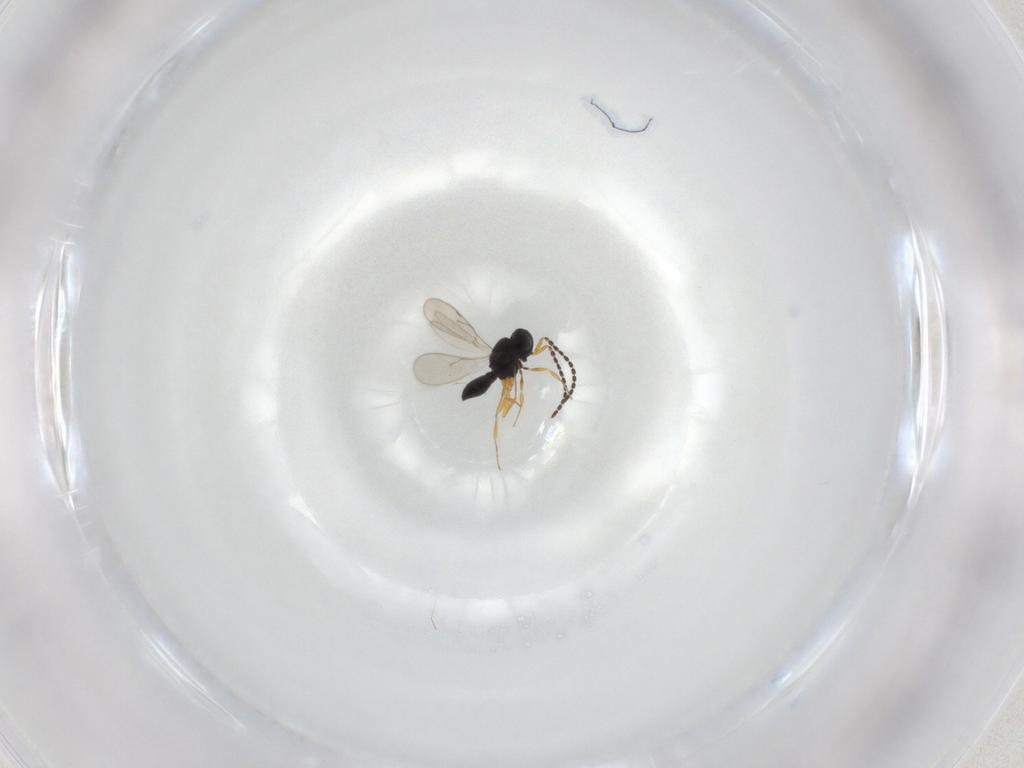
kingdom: Animalia
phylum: Arthropoda
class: Insecta
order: Hymenoptera
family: Scelionidae
